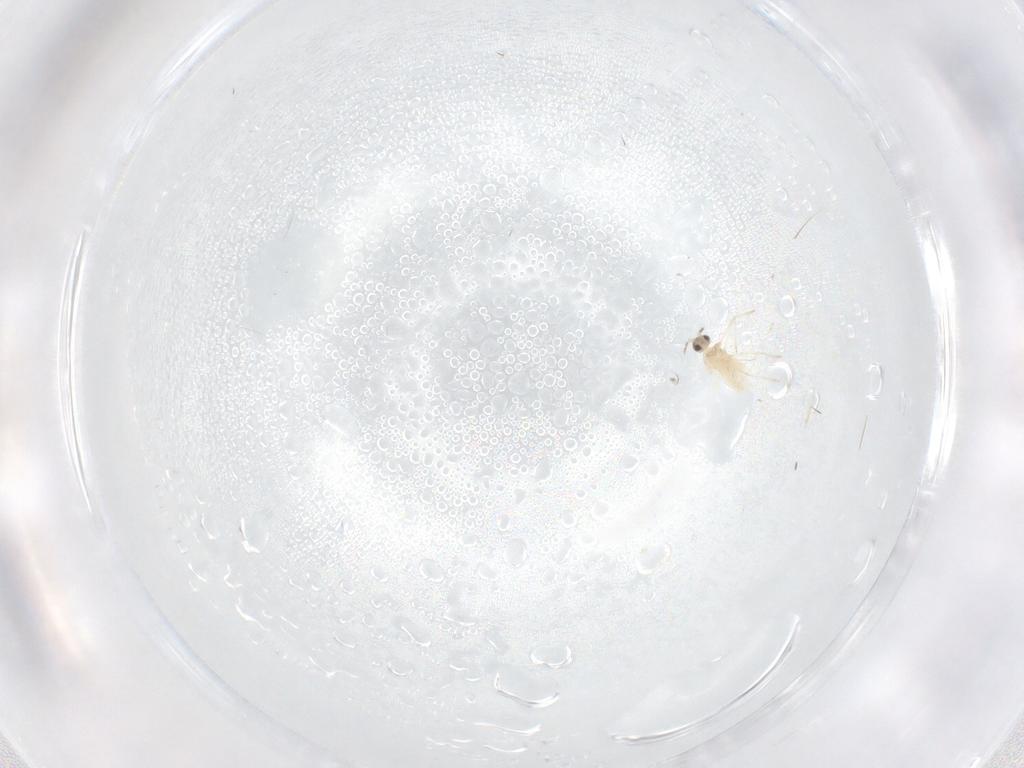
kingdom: Animalia
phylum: Arthropoda
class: Insecta
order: Diptera
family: Cecidomyiidae
